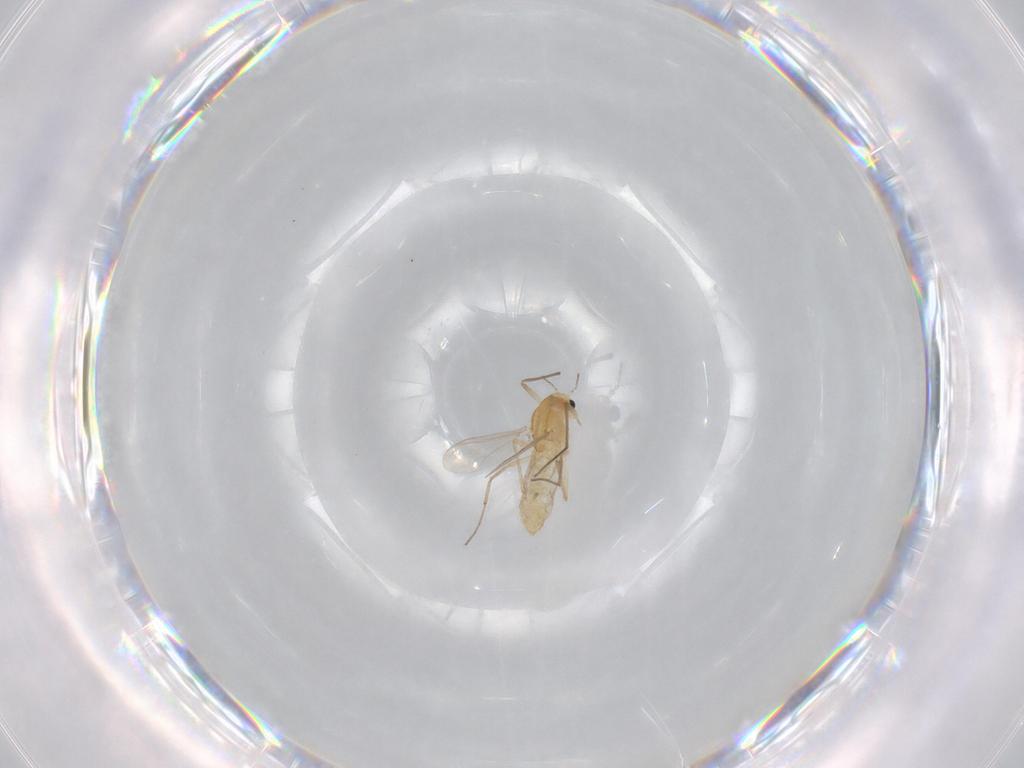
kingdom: Animalia
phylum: Arthropoda
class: Insecta
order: Diptera
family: Chironomidae
